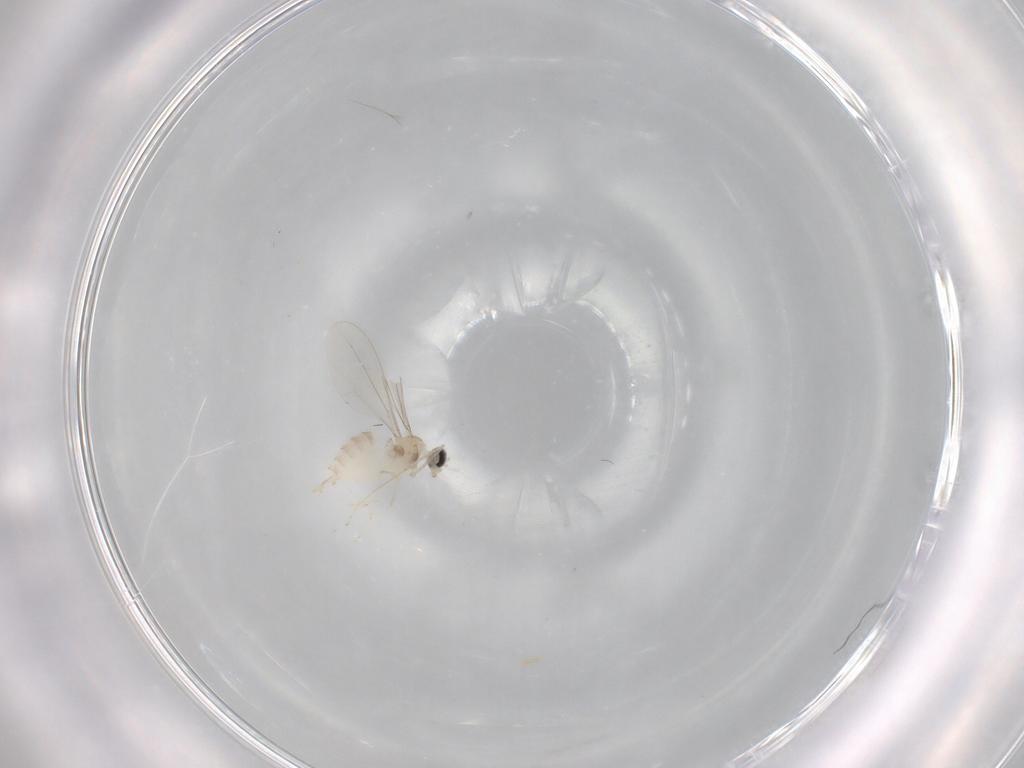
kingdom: Animalia
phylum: Arthropoda
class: Insecta
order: Diptera
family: Cecidomyiidae
